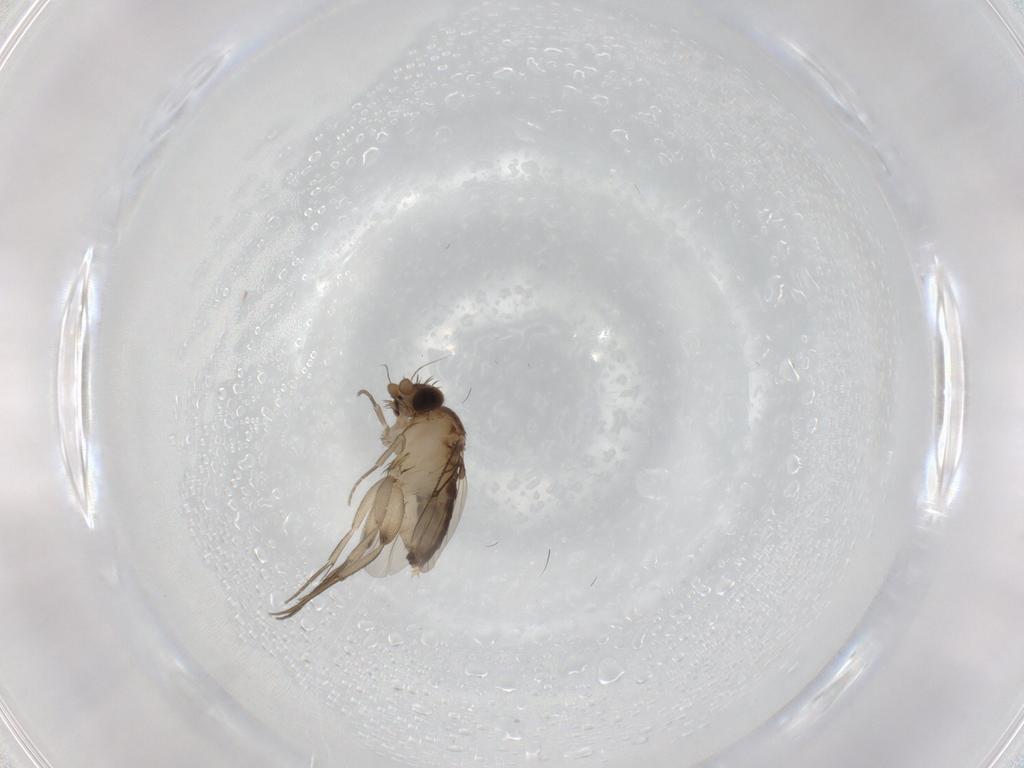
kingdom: Animalia
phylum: Arthropoda
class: Insecta
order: Diptera
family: Phoridae
